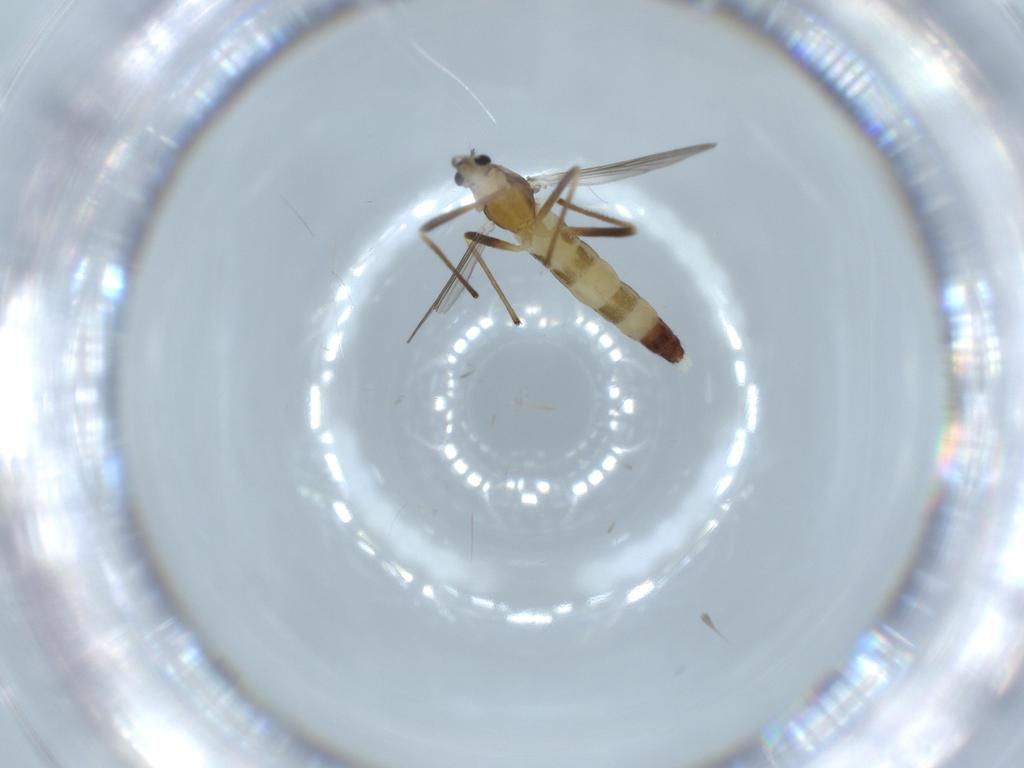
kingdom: Animalia
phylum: Arthropoda
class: Insecta
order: Diptera
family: Chironomidae
